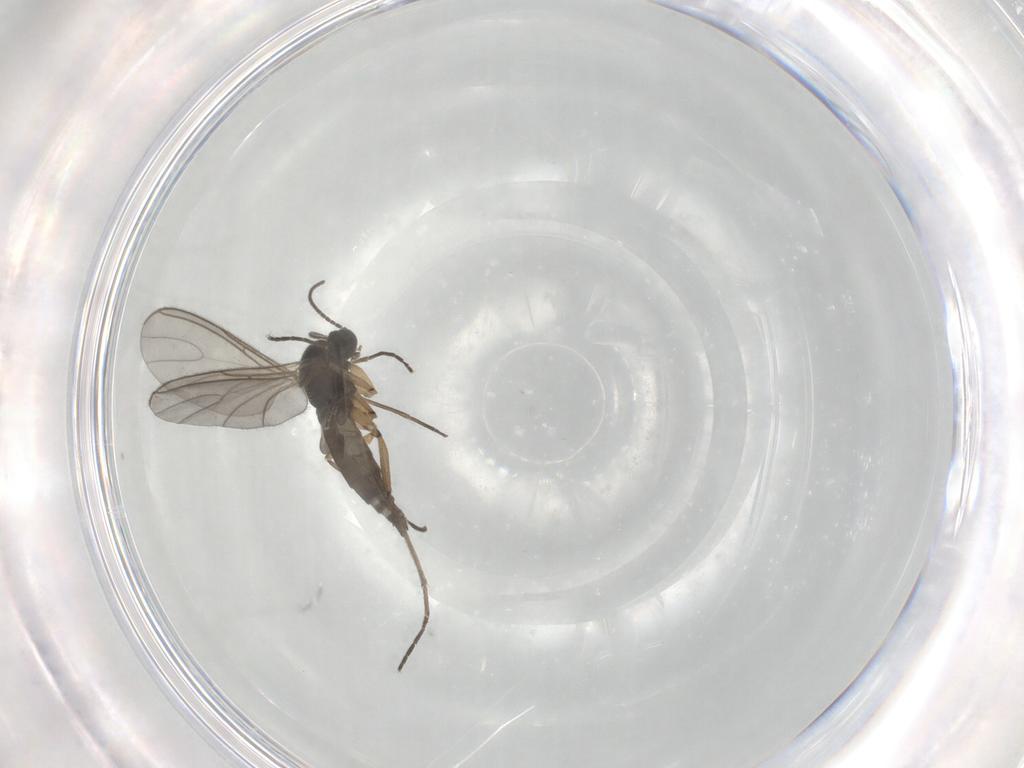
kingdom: Animalia
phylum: Arthropoda
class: Insecta
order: Diptera
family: Sciaridae
